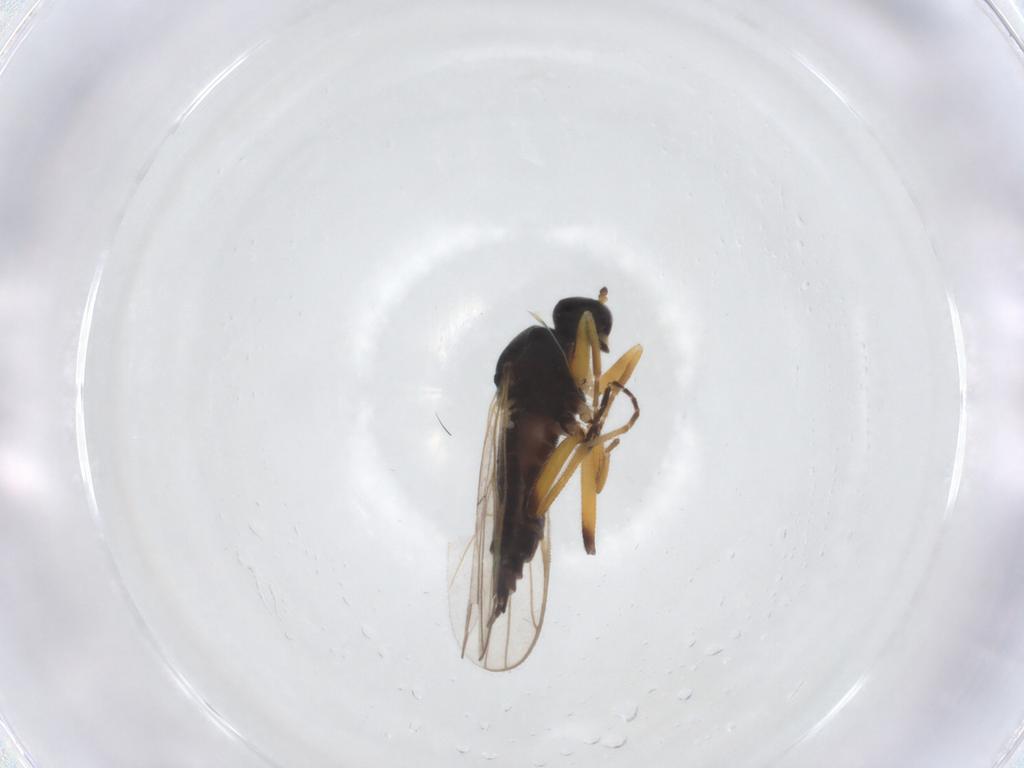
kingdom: Animalia
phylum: Arthropoda
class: Insecta
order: Diptera
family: Hybotidae
